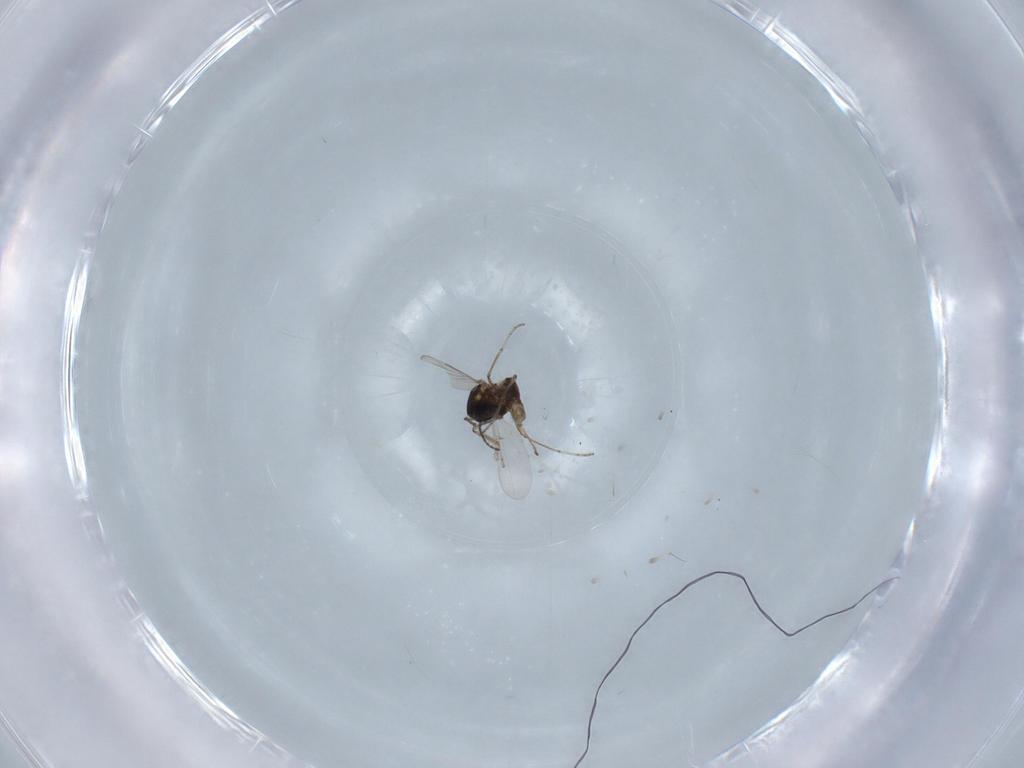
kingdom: Animalia
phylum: Arthropoda
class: Insecta
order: Diptera
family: Ceratopogonidae
